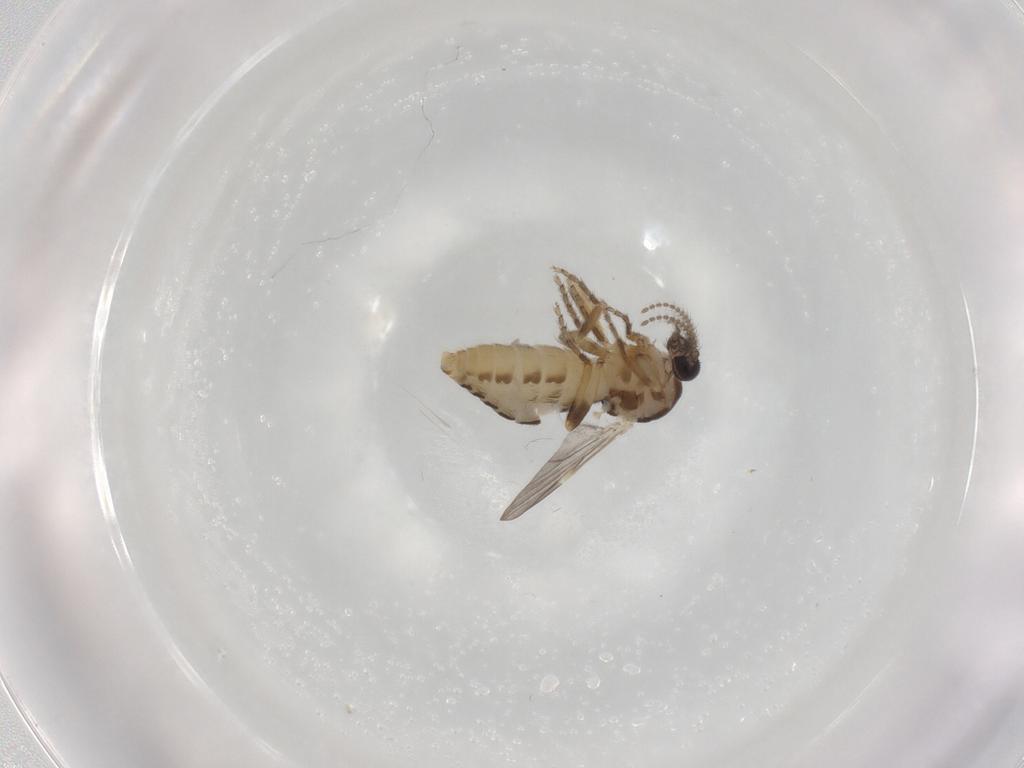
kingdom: Animalia
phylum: Arthropoda
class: Insecta
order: Diptera
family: Ceratopogonidae
